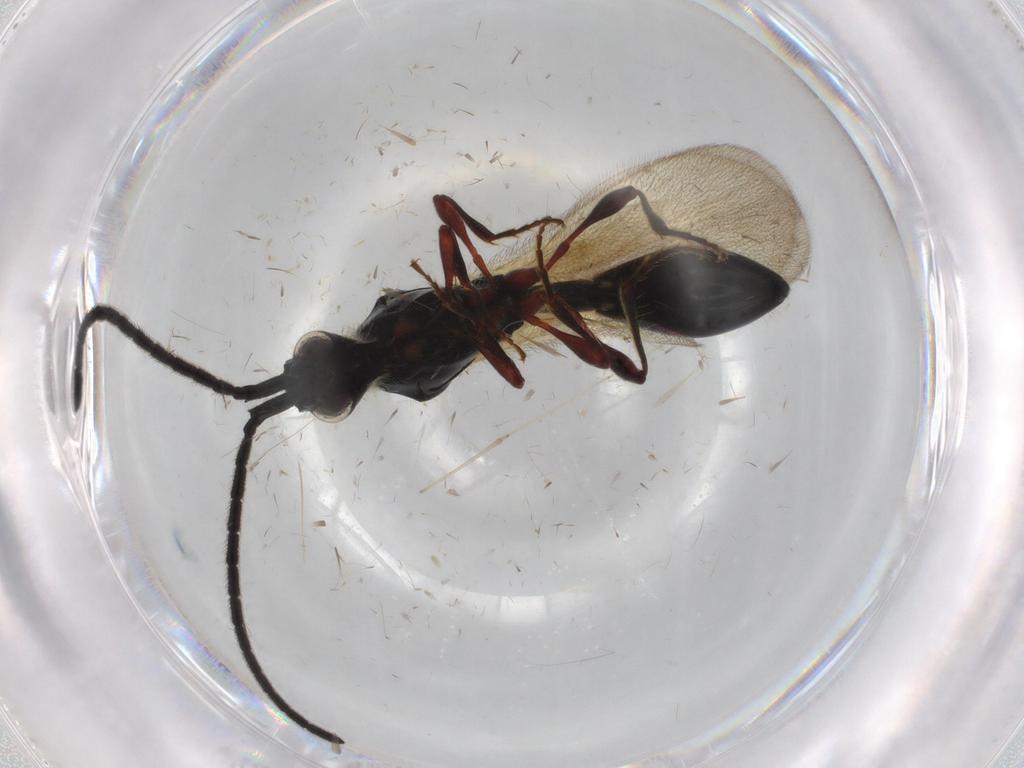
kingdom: Animalia
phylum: Arthropoda
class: Insecta
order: Hymenoptera
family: Diapriidae
